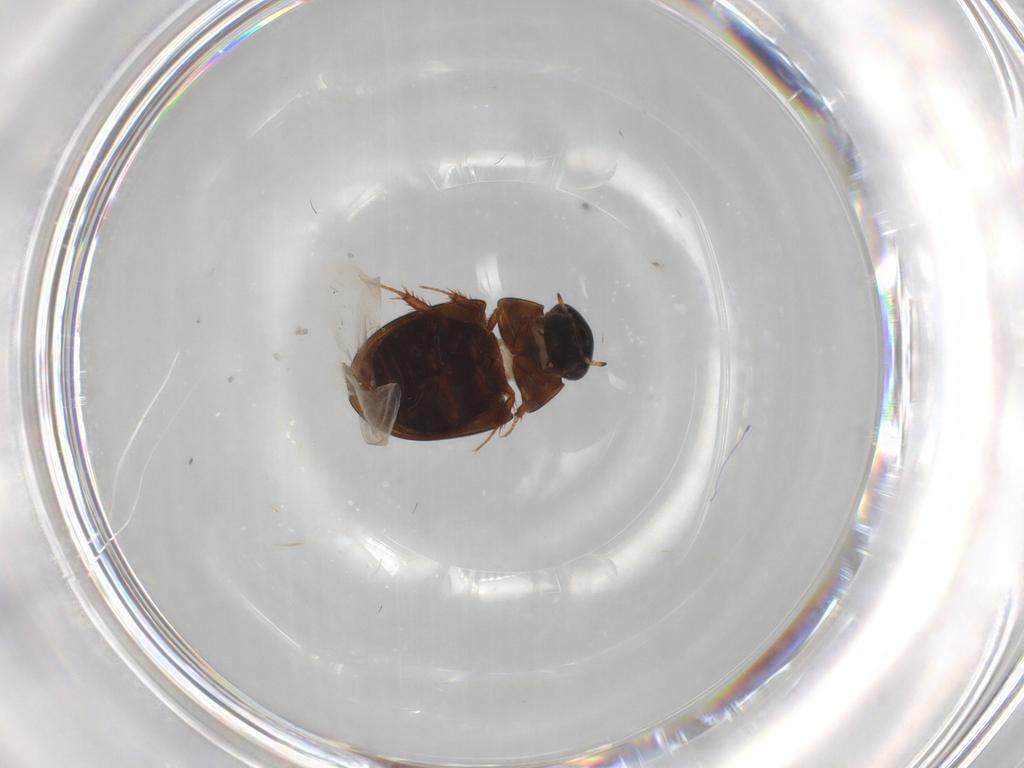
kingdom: Animalia
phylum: Arthropoda
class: Insecta
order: Coleoptera
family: Hydrophilidae
